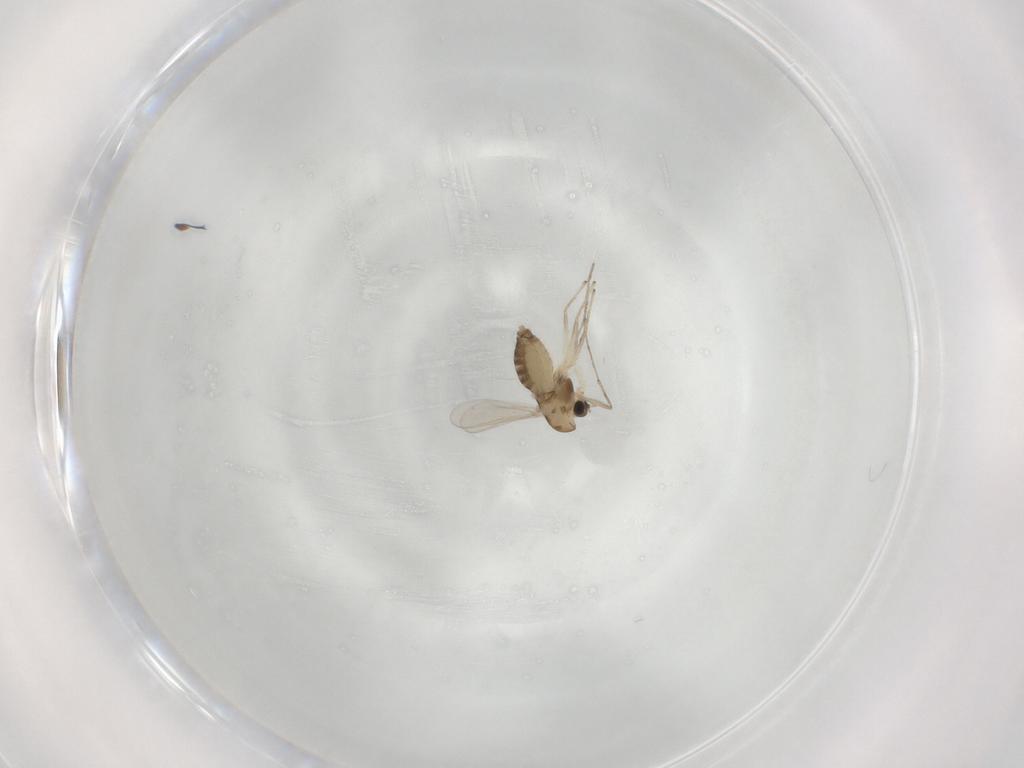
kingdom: Animalia
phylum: Arthropoda
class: Insecta
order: Diptera
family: Chironomidae
